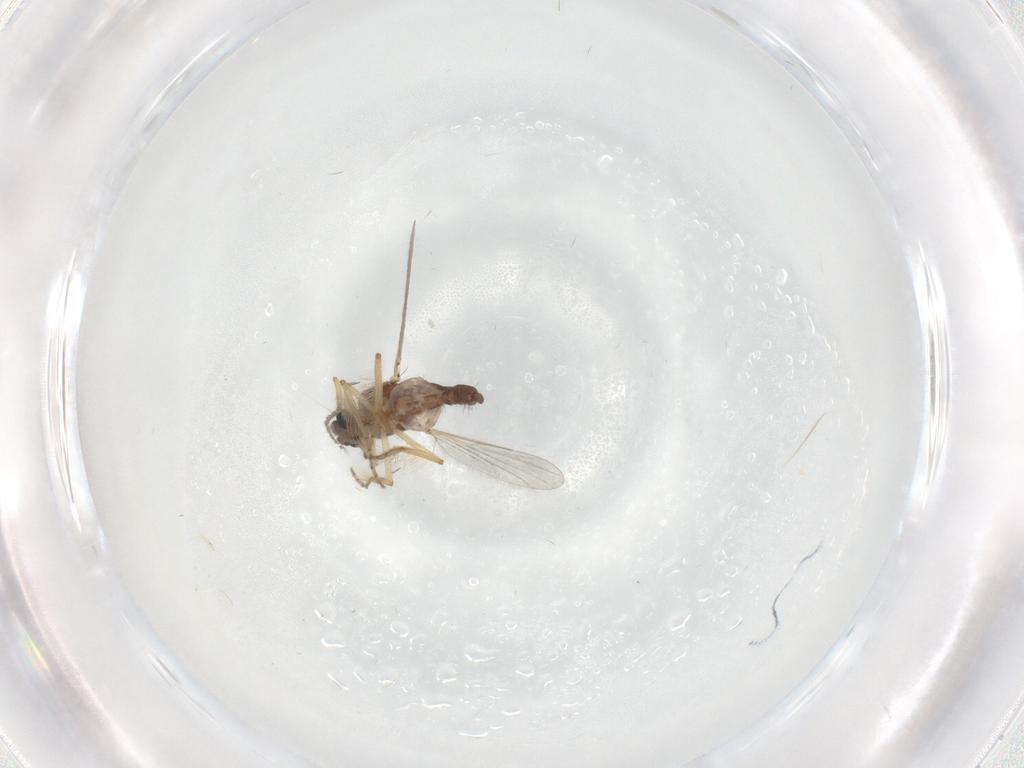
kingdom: Animalia
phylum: Arthropoda
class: Insecta
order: Diptera
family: Ceratopogonidae
